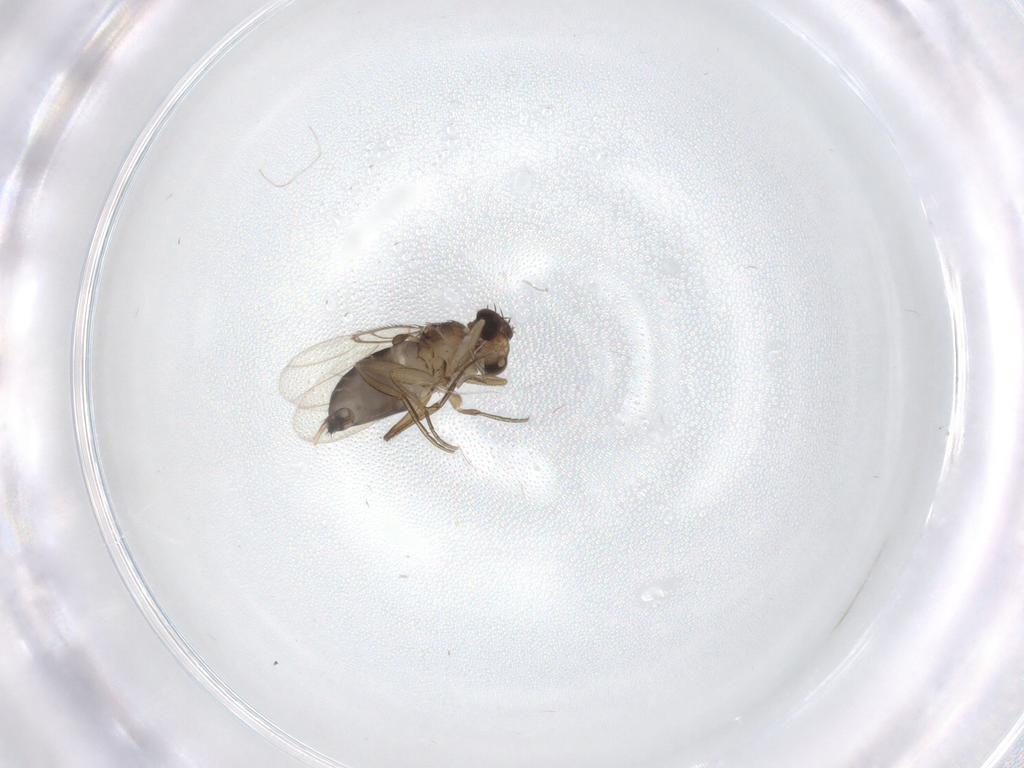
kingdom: Animalia
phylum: Arthropoda
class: Insecta
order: Diptera
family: Phoridae
